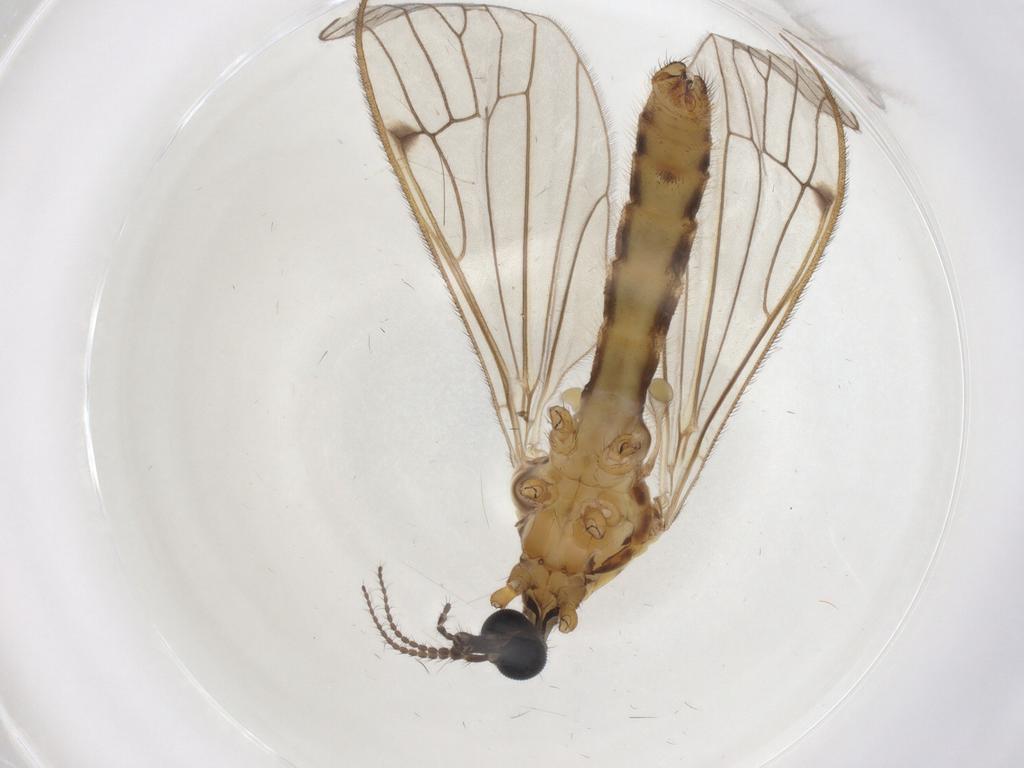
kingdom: Animalia
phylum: Arthropoda
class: Insecta
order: Diptera
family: Limoniidae
